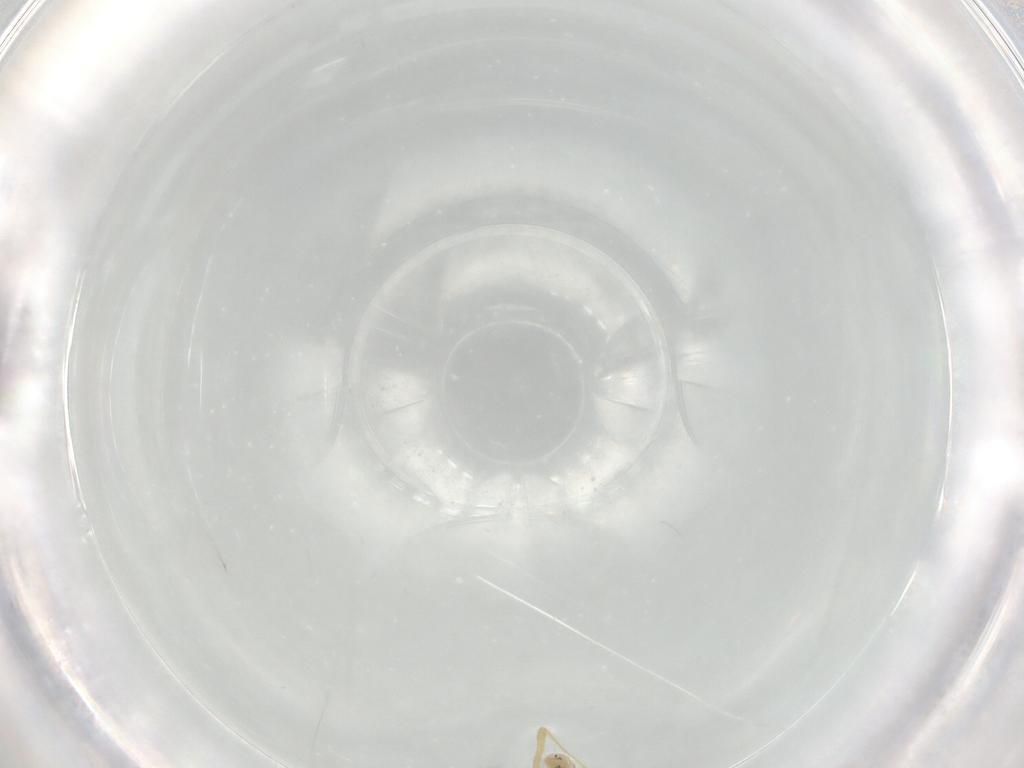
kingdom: Animalia
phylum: Arthropoda
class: Insecta
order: Diptera
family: Chironomidae
